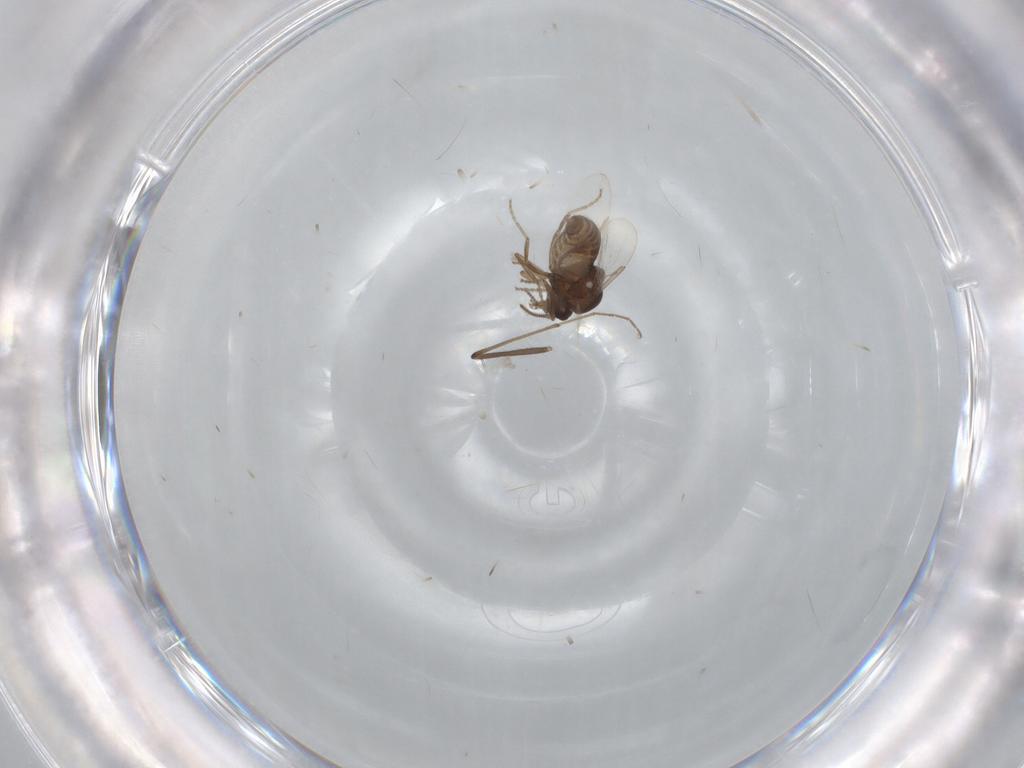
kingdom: Animalia
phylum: Arthropoda
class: Insecta
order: Diptera
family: Ceratopogonidae
